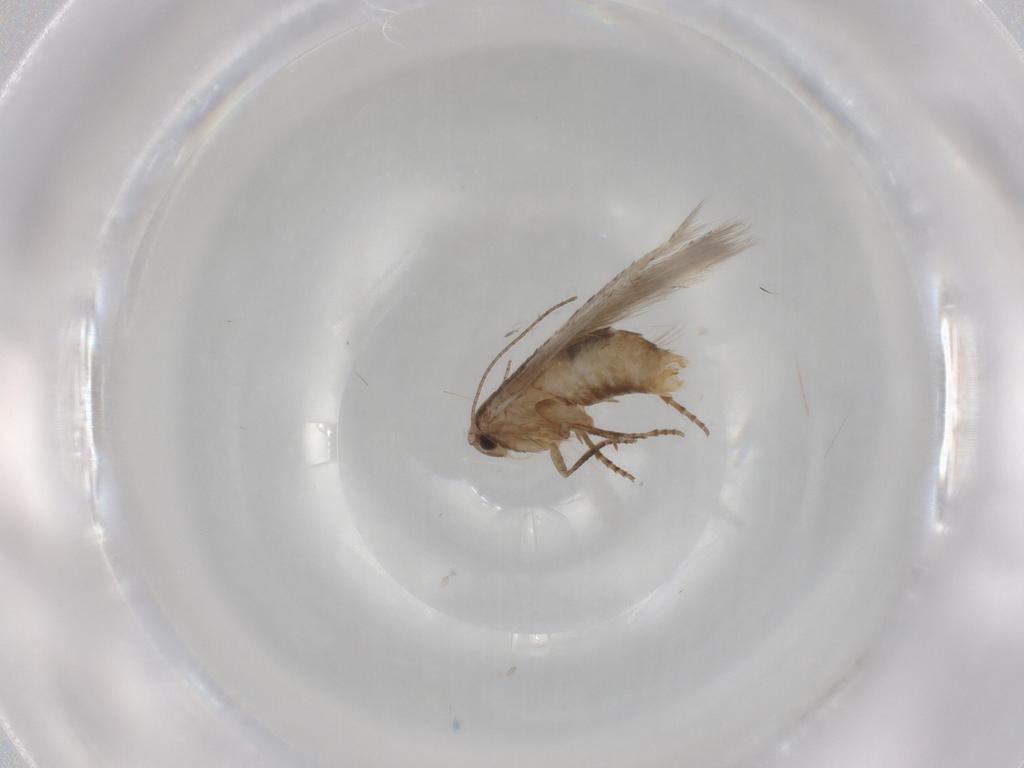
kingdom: Animalia
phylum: Arthropoda
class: Insecta
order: Lepidoptera
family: Bucculatricidae
